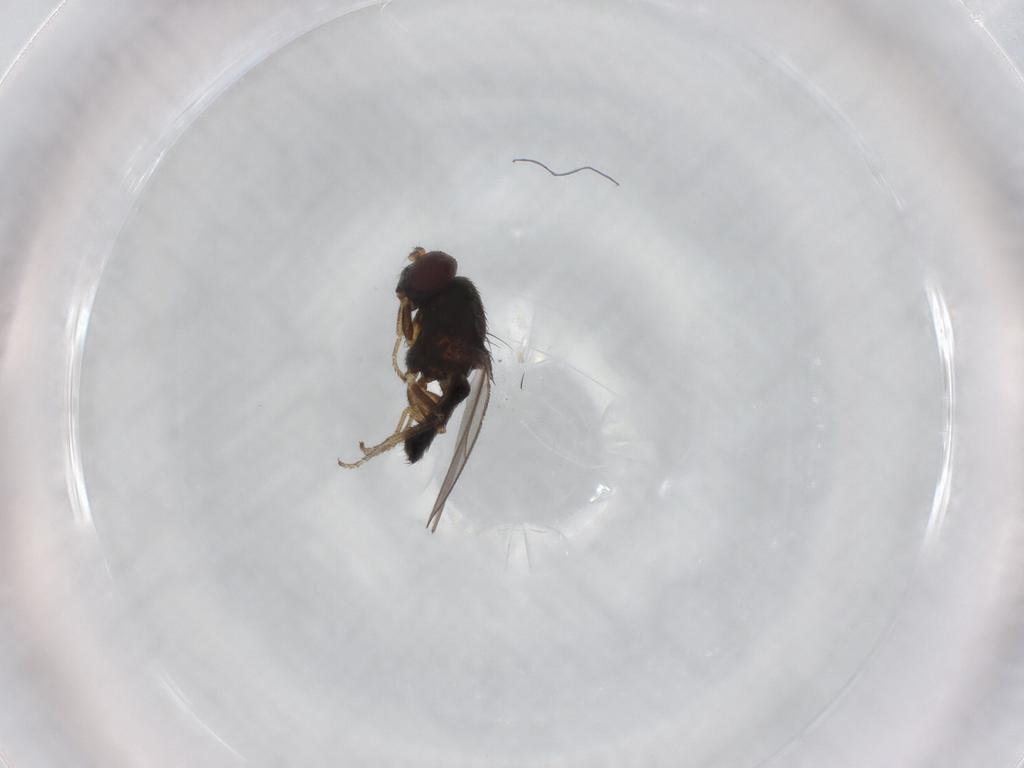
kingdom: Animalia
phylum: Arthropoda
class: Insecta
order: Diptera
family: Ephydridae
